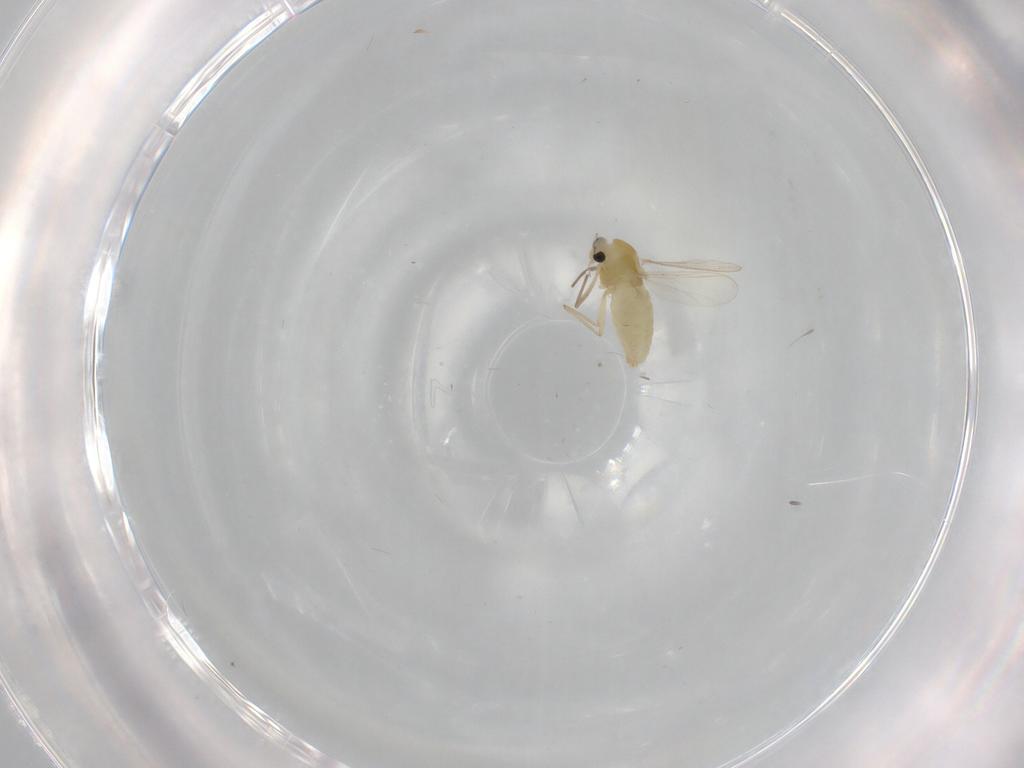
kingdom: Animalia
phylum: Arthropoda
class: Insecta
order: Diptera
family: Chironomidae
